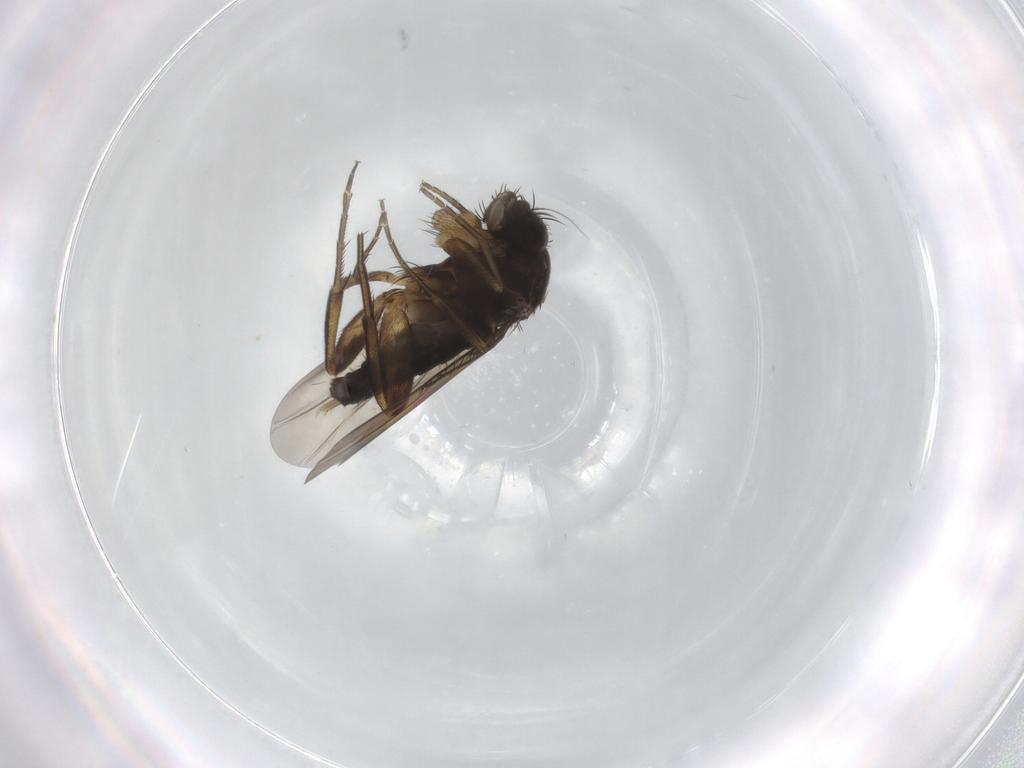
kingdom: Animalia
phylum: Arthropoda
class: Insecta
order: Diptera
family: Phoridae
